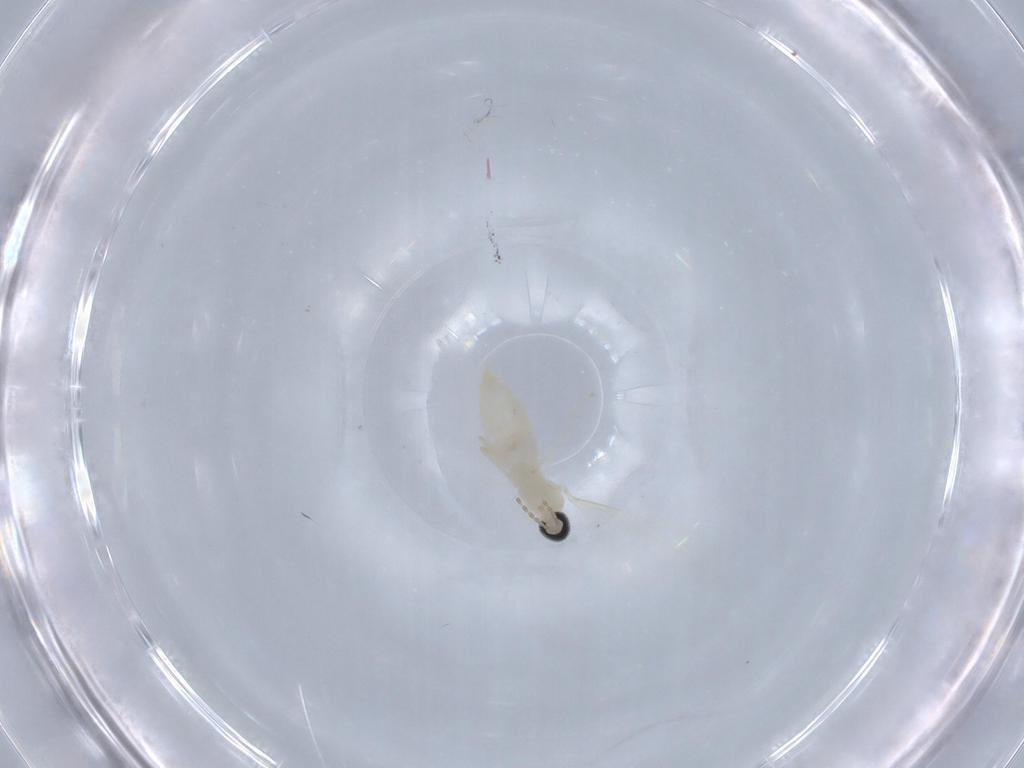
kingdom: Animalia
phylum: Arthropoda
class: Insecta
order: Diptera
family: Cecidomyiidae
